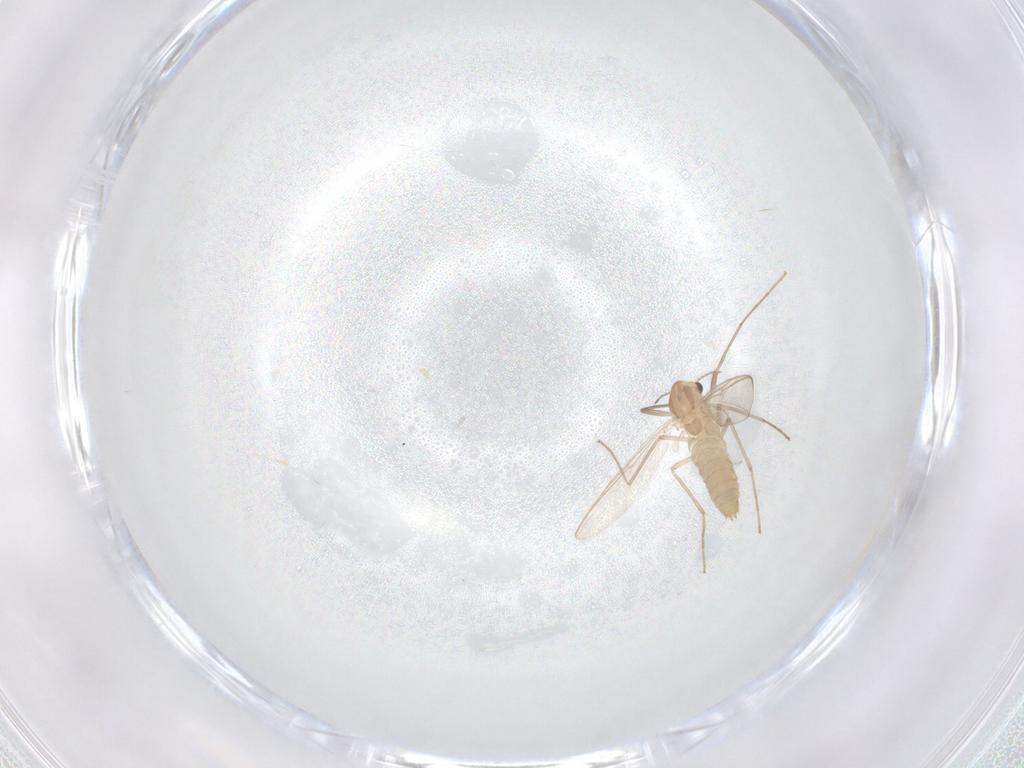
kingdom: Animalia
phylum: Arthropoda
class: Insecta
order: Diptera
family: Chironomidae
